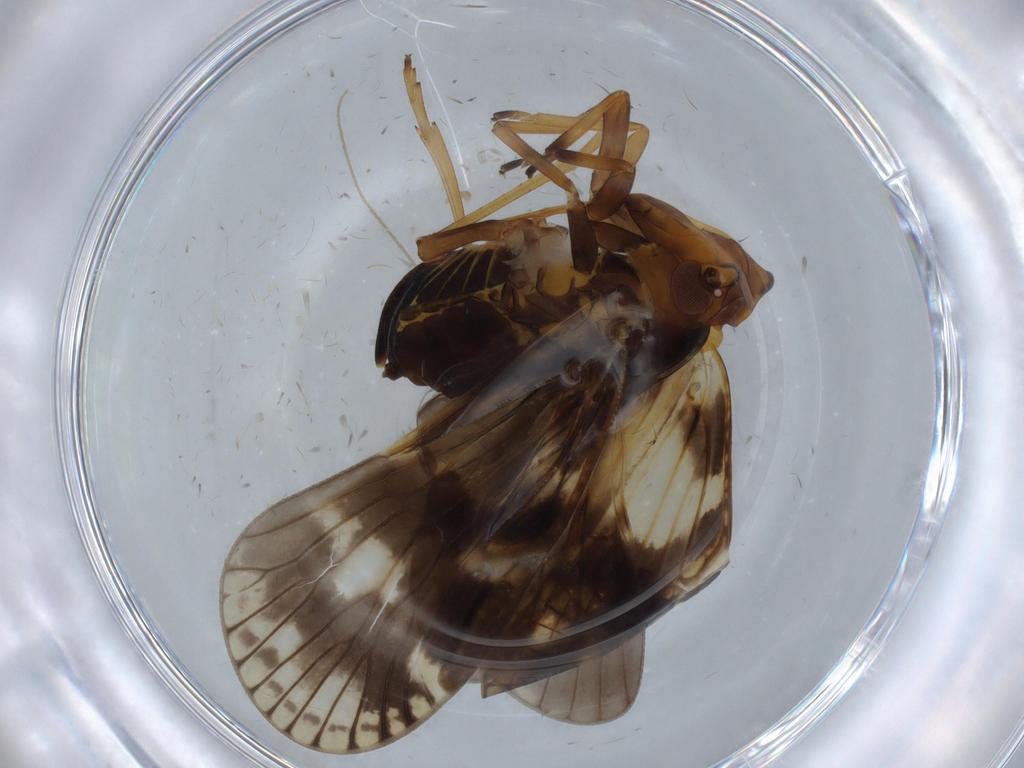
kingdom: Animalia
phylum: Arthropoda
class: Insecta
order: Hemiptera
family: Cixiidae
